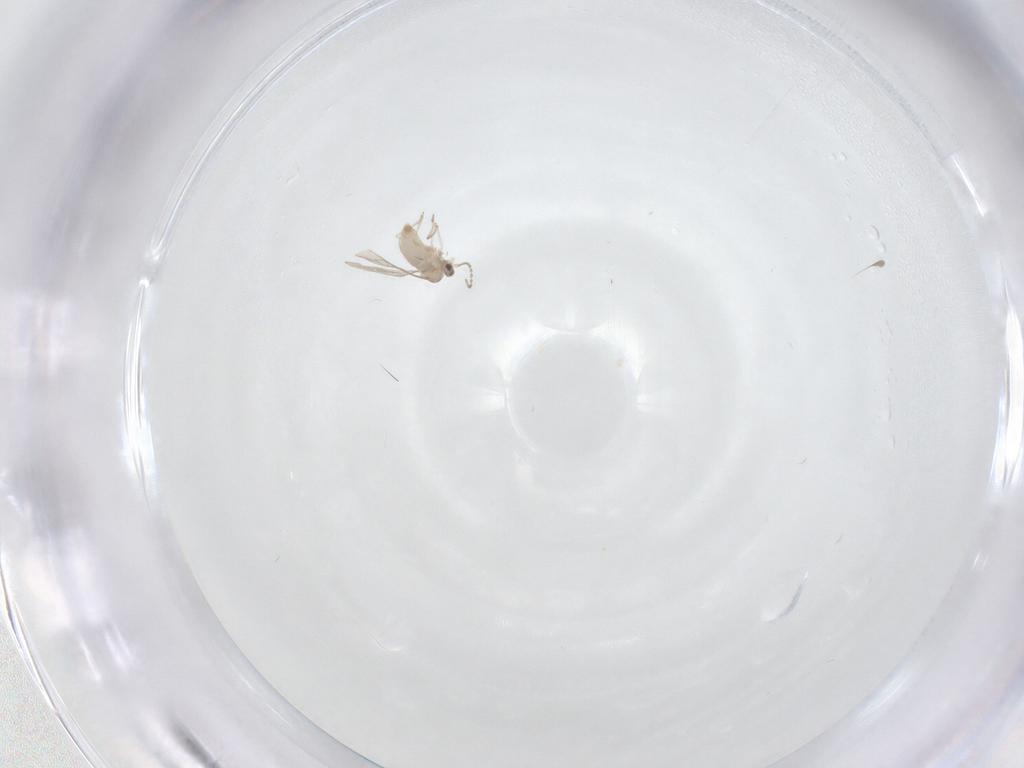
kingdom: Animalia
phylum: Arthropoda
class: Insecta
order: Diptera
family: Cecidomyiidae
